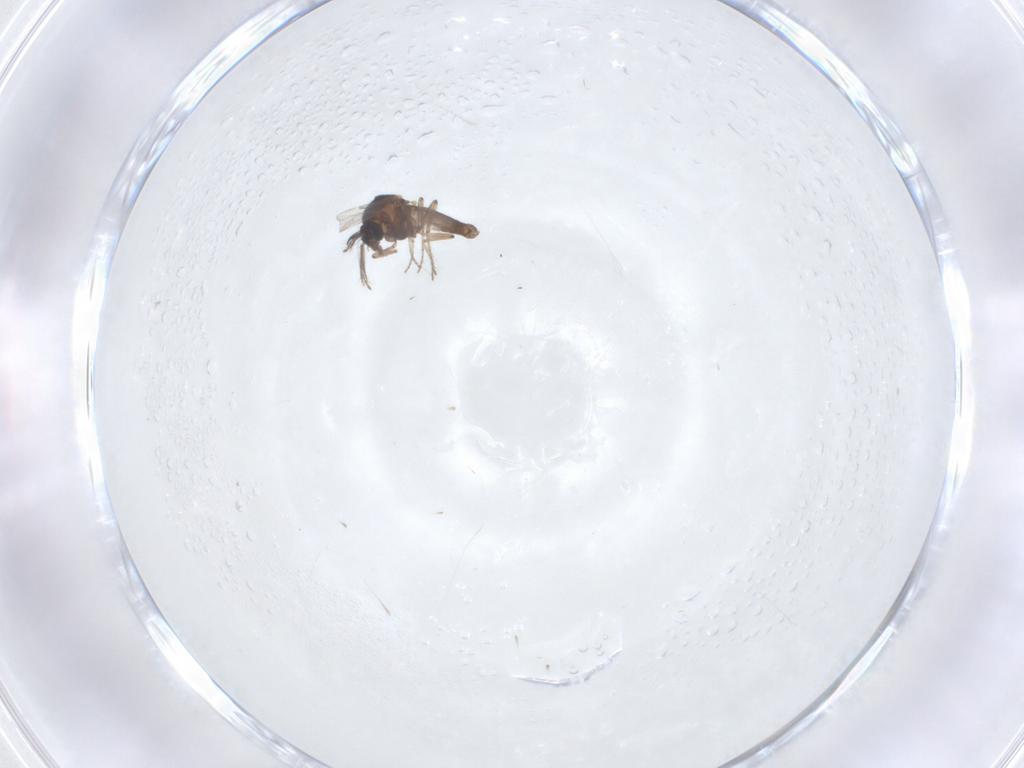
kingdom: Animalia
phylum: Arthropoda
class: Insecta
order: Diptera
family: Ceratopogonidae
